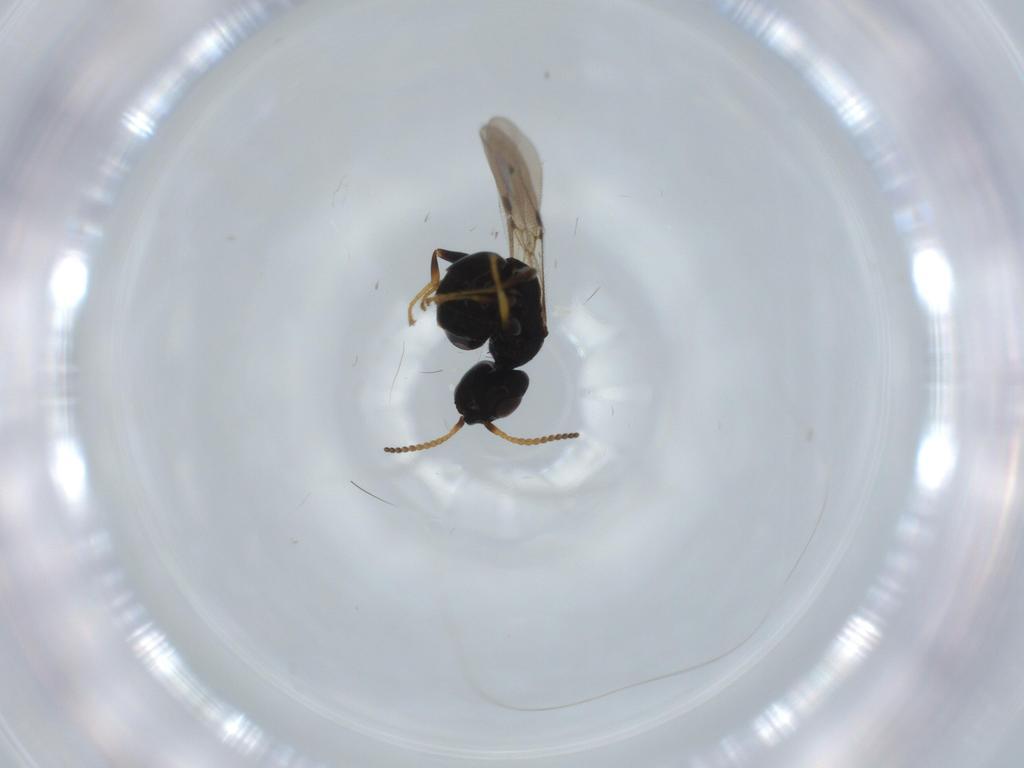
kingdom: Animalia
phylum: Arthropoda
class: Insecta
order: Hymenoptera
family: Bethylidae
